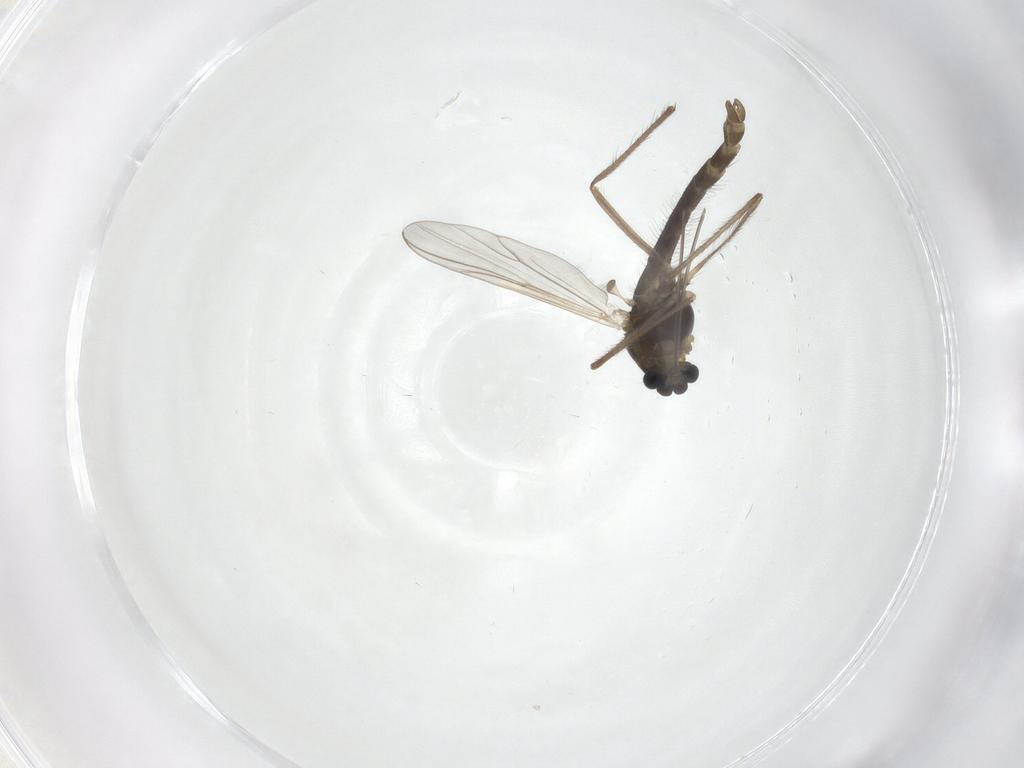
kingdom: Animalia
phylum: Arthropoda
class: Insecta
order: Diptera
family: Chironomidae
